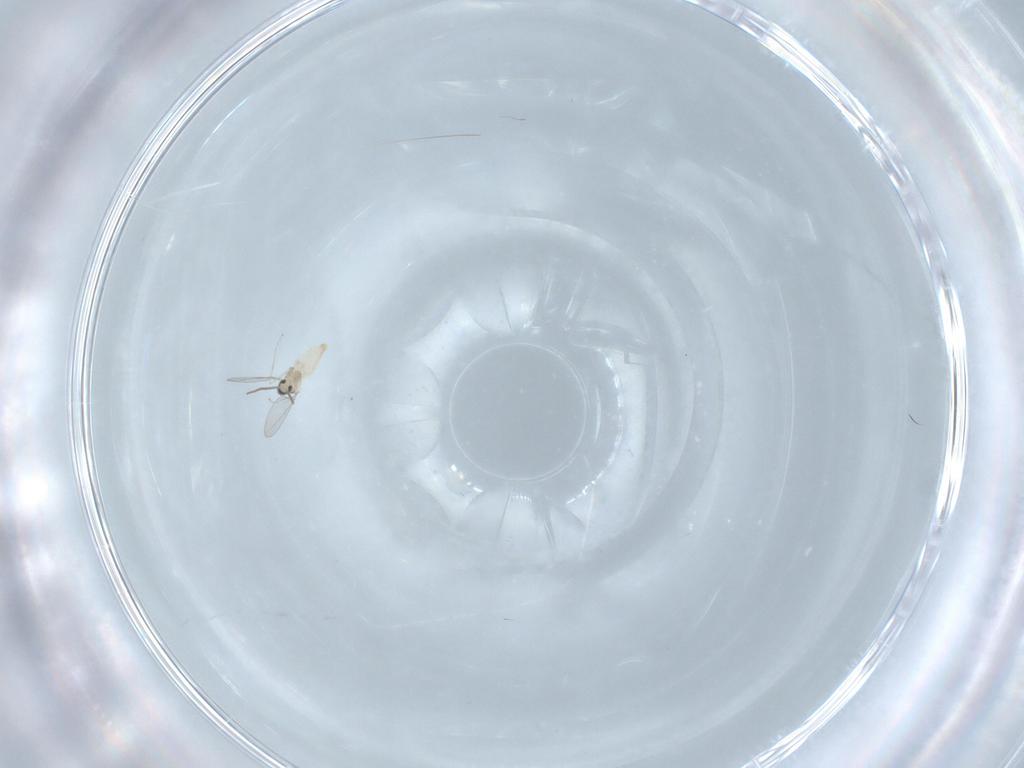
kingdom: Animalia
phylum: Arthropoda
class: Insecta
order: Diptera
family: Cecidomyiidae
